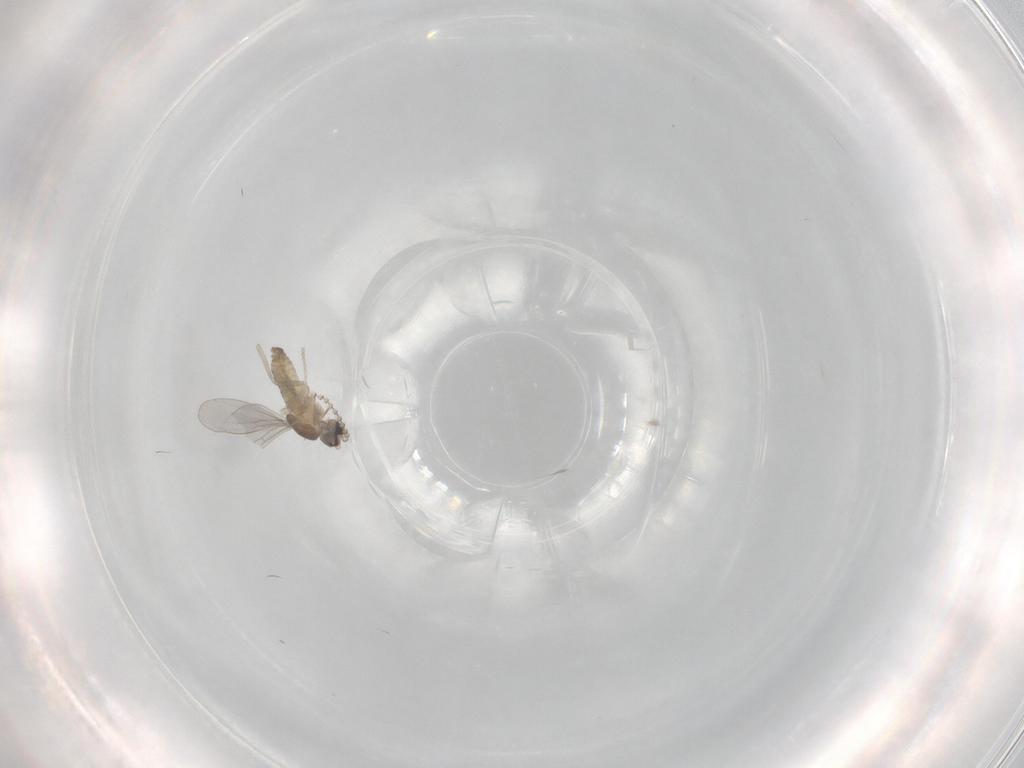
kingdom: Animalia
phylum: Arthropoda
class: Insecta
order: Diptera
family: Cecidomyiidae
